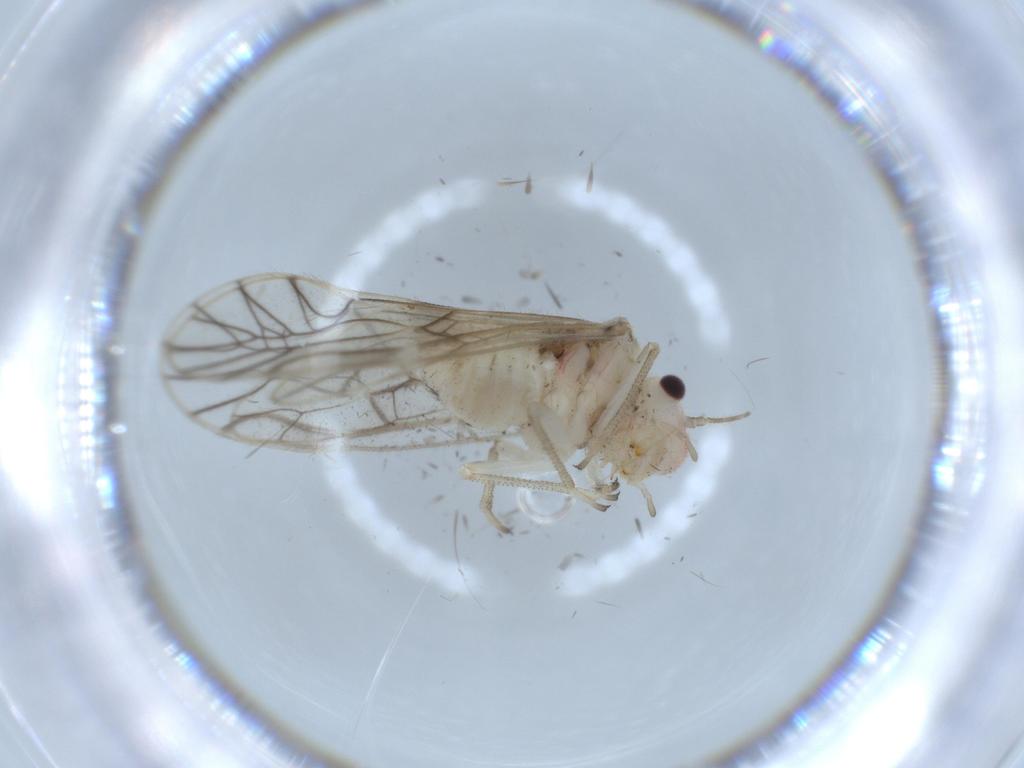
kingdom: Animalia
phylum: Arthropoda
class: Insecta
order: Psocodea
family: Amphipsocidae
